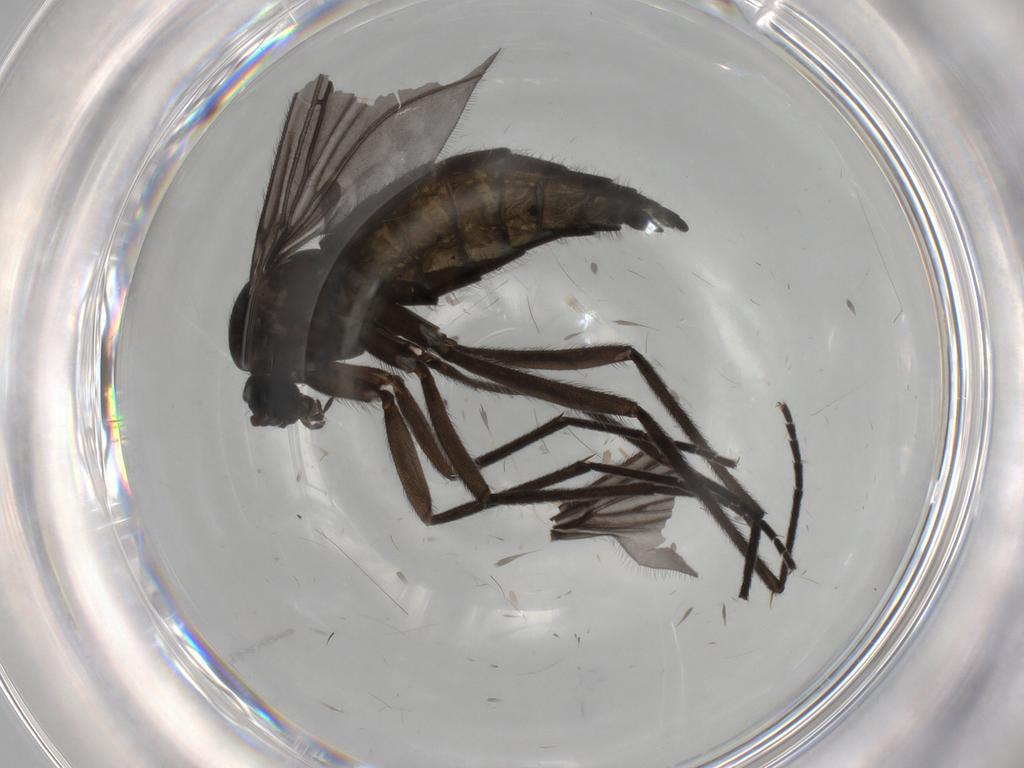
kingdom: Animalia
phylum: Arthropoda
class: Insecta
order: Diptera
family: Sciaridae
